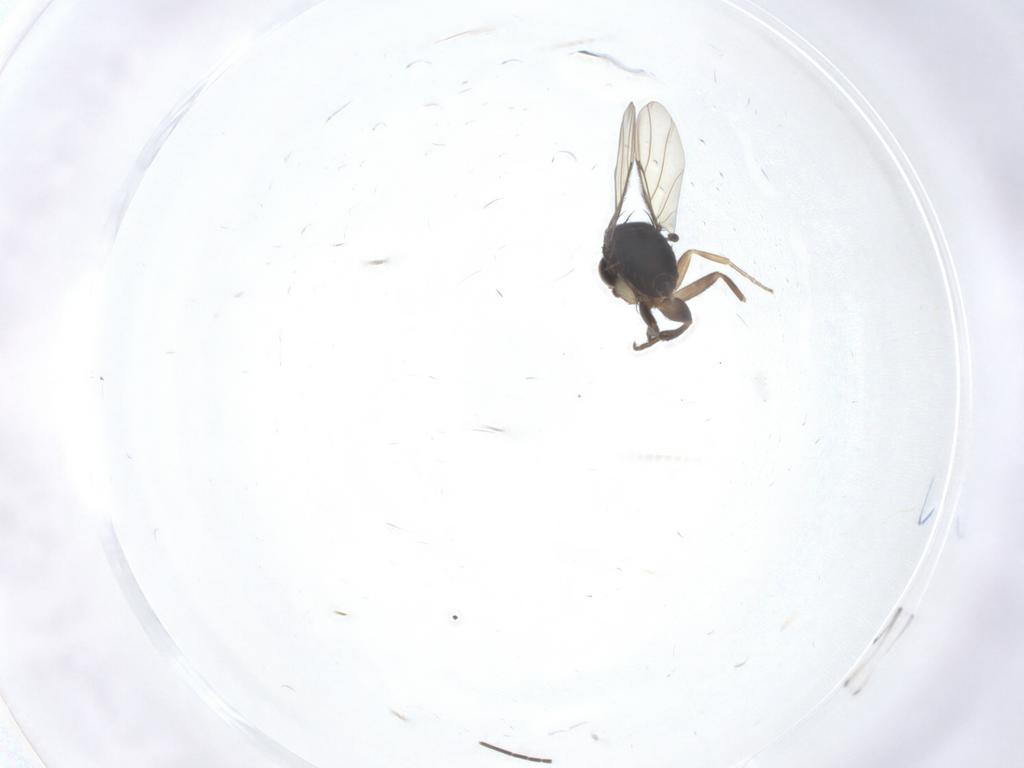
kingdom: Animalia
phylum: Arthropoda
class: Insecta
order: Diptera
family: Phoridae
